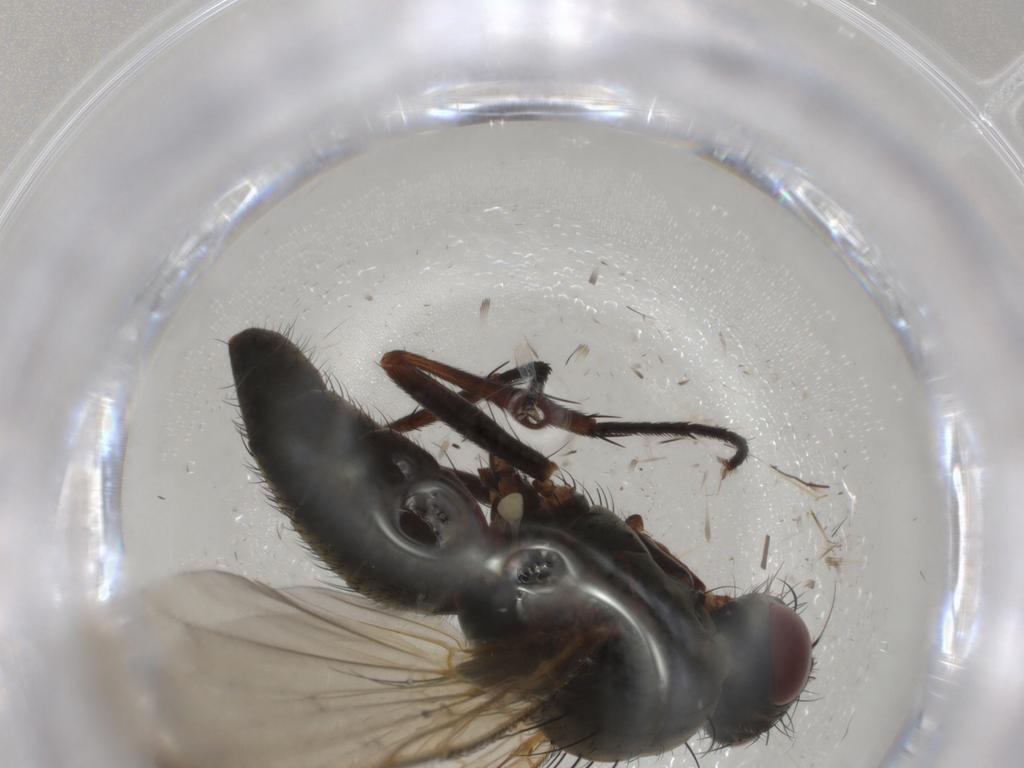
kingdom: Animalia
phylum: Arthropoda
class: Insecta
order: Diptera
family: Anthomyiidae
